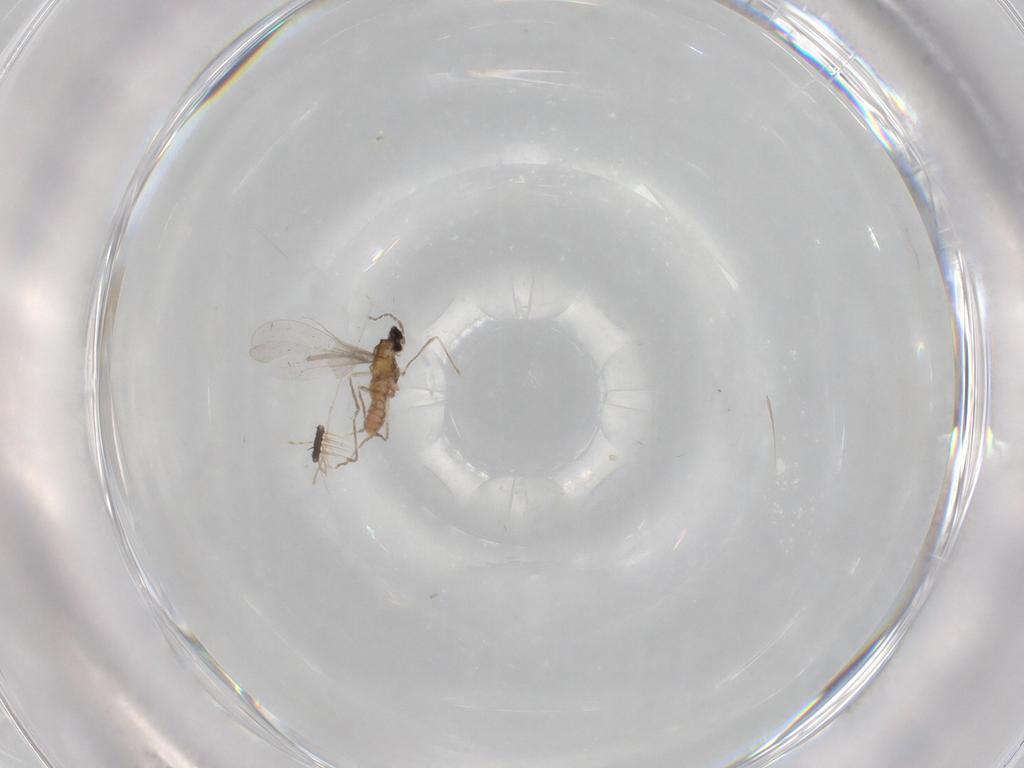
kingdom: Animalia
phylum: Arthropoda
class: Insecta
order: Diptera
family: Cecidomyiidae
